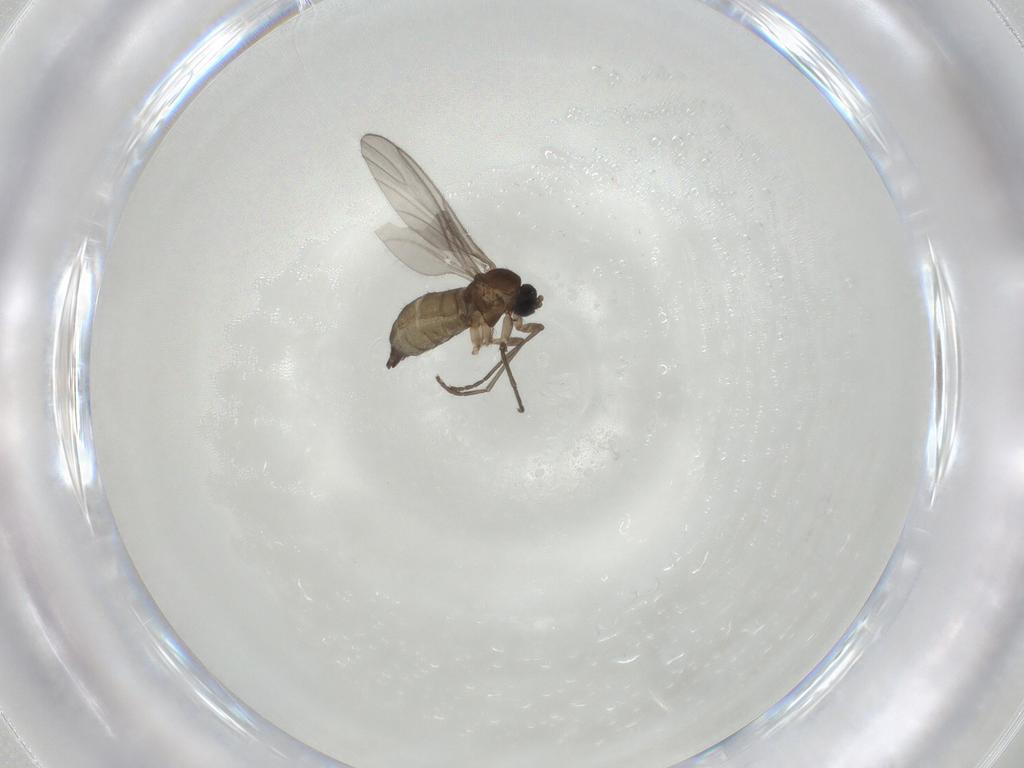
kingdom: Animalia
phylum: Arthropoda
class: Insecta
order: Diptera
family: Sciaridae
